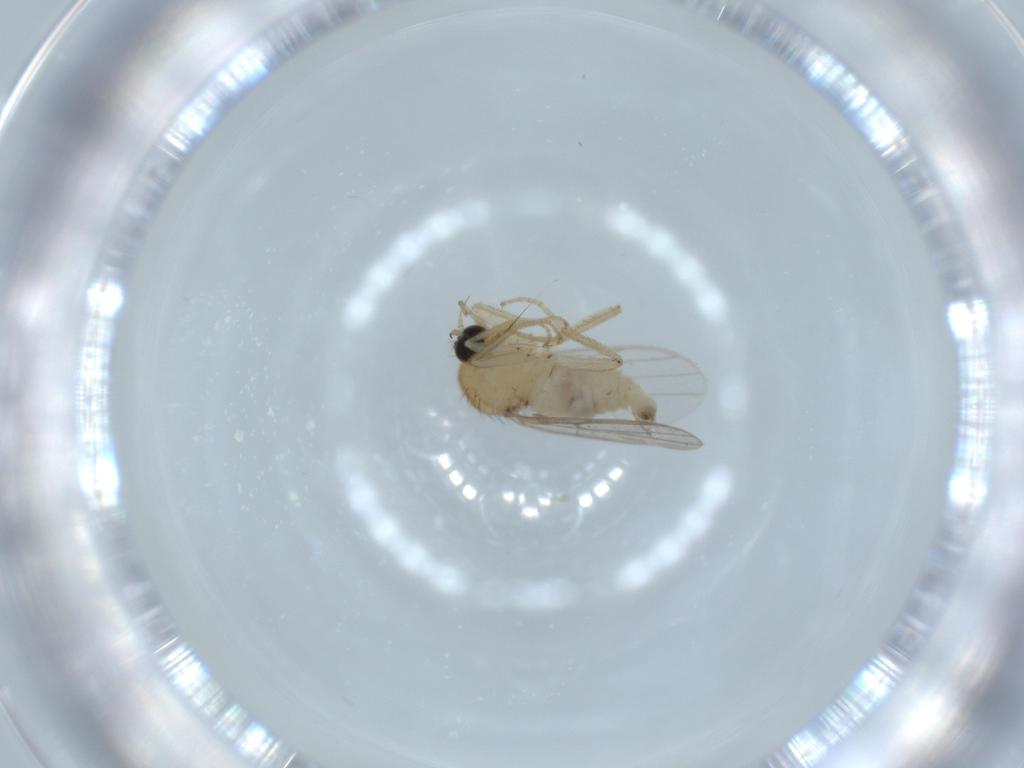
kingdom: Animalia
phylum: Arthropoda
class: Insecta
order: Diptera
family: Hybotidae
